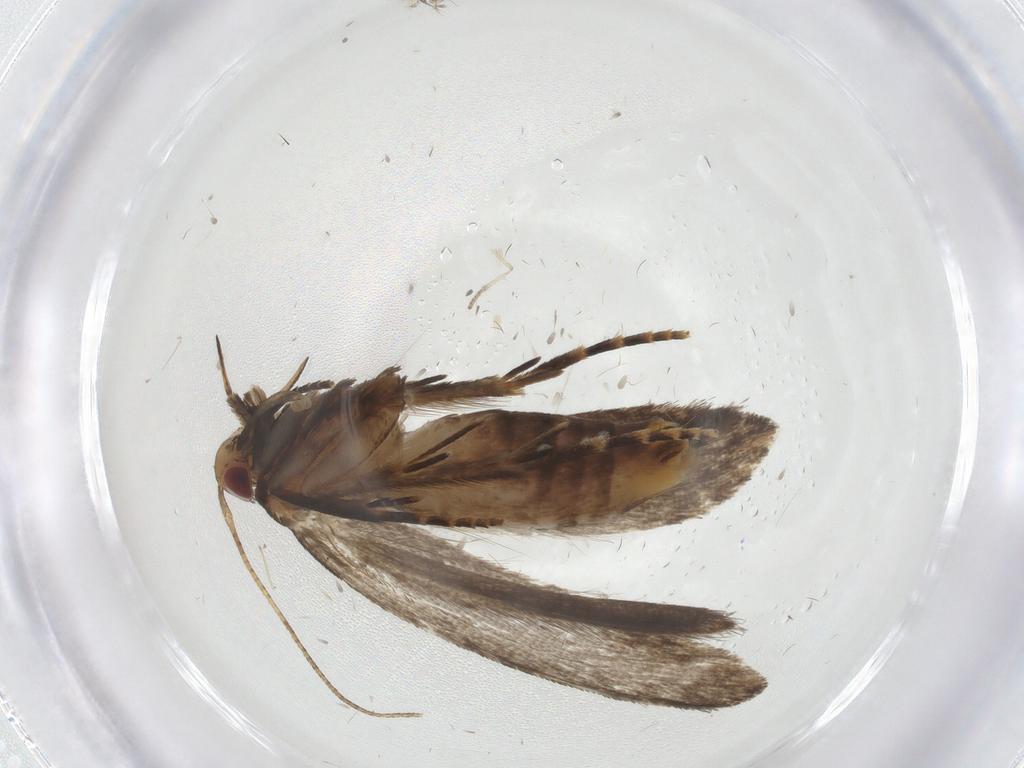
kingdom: Animalia
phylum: Arthropoda
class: Insecta
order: Lepidoptera
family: Gelechiidae
